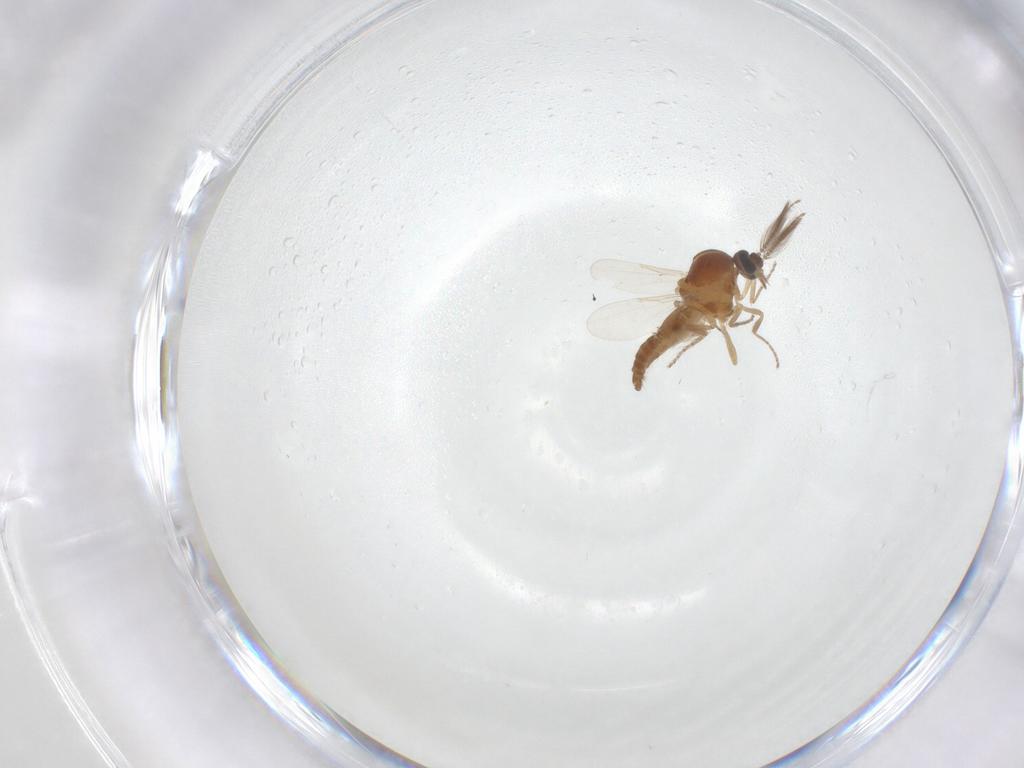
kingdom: Animalia
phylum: Arthropoda
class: Insecta
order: Diptera
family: Ceratopogonidae
